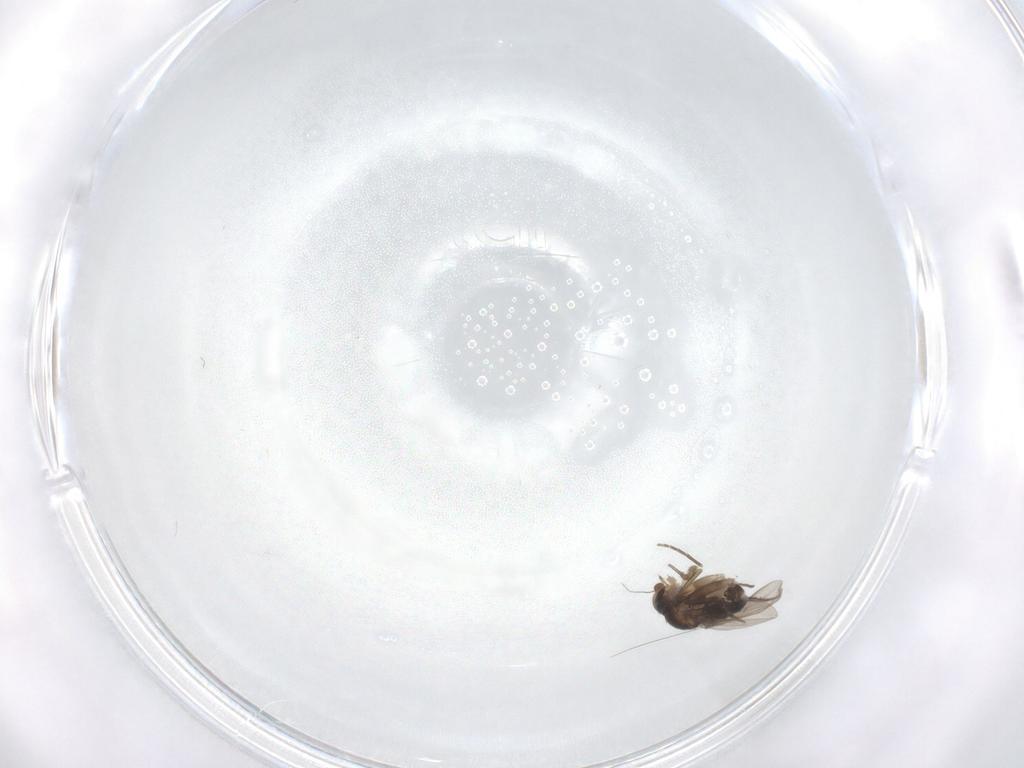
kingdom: Animalia
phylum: Arthropoda
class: Insecta
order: Diptera
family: Phoridae
